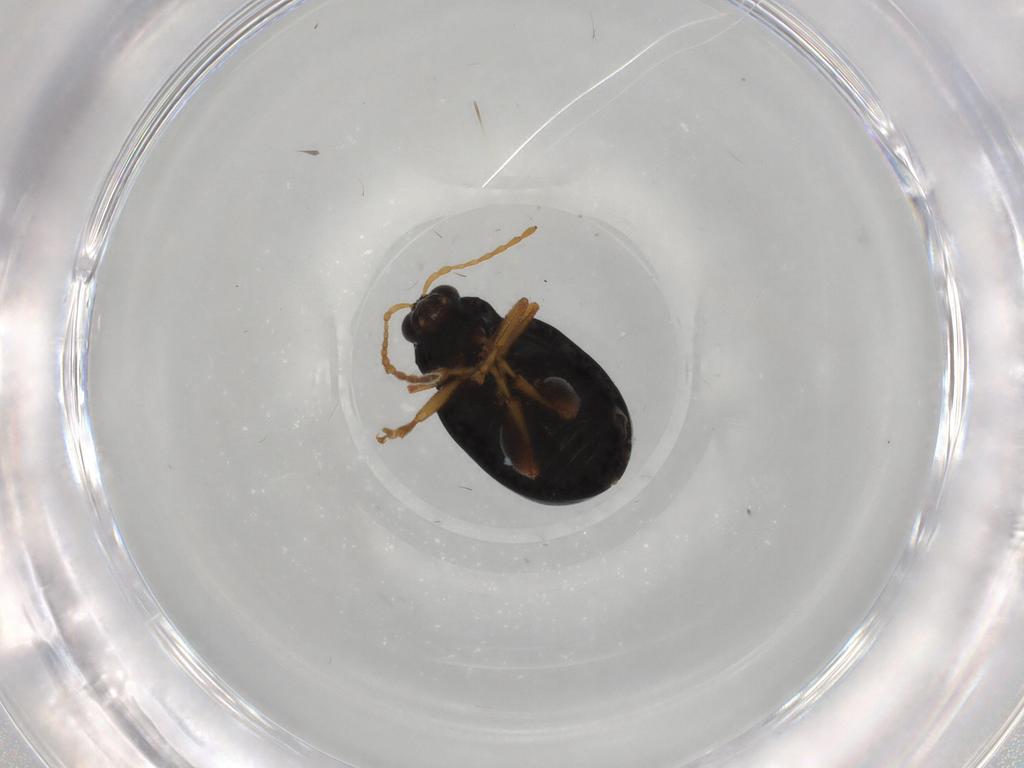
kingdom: Animalia
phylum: Arthropoda
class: Insecta
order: Coleoptera
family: Chrysomelidae
